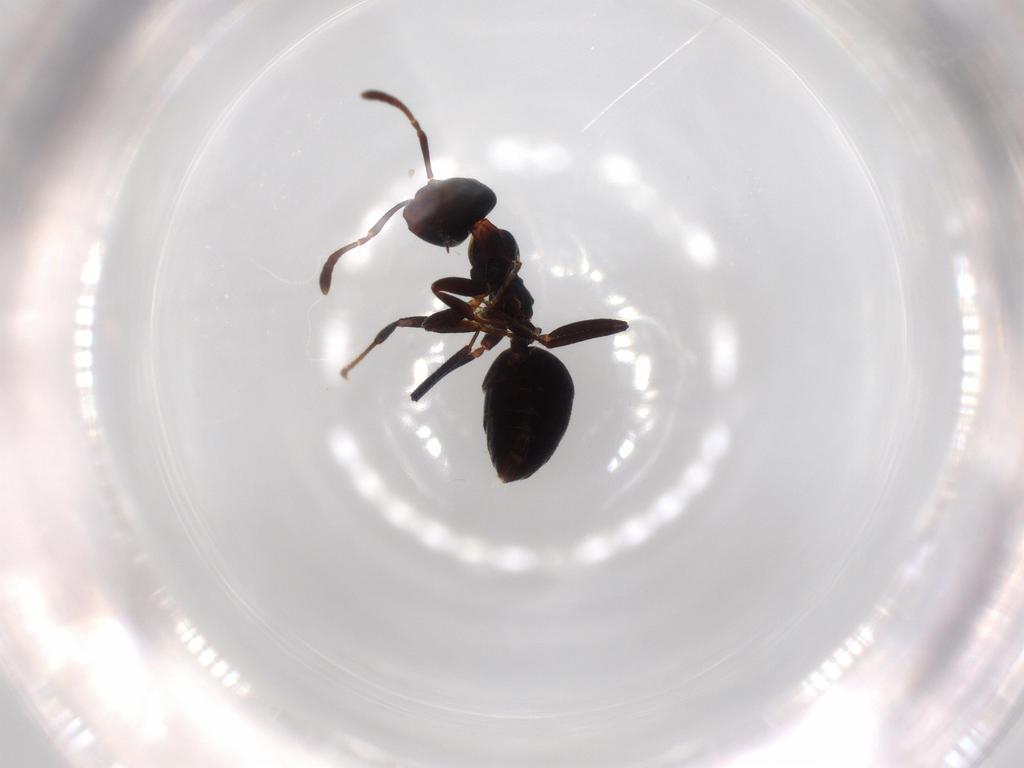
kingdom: Animalia
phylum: Arthropoda
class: Insecta
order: Hymenoptera
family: Formicidae
